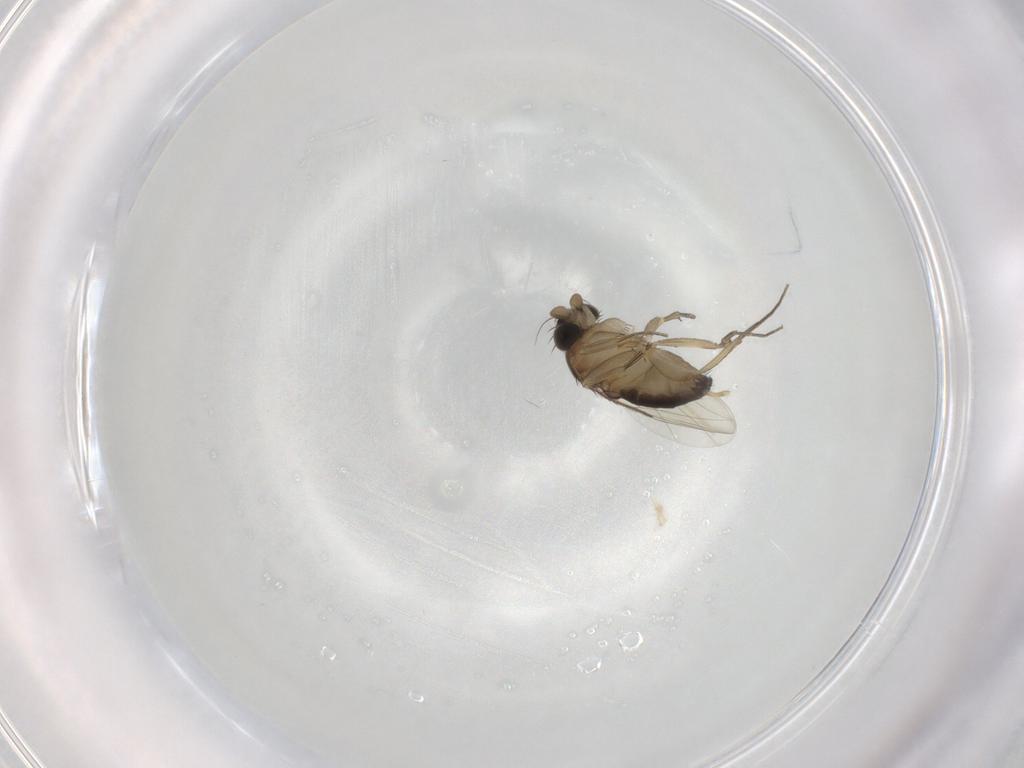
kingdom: Animalia
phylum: Arthropoda
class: Insecta
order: Diptera
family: Phoridae
